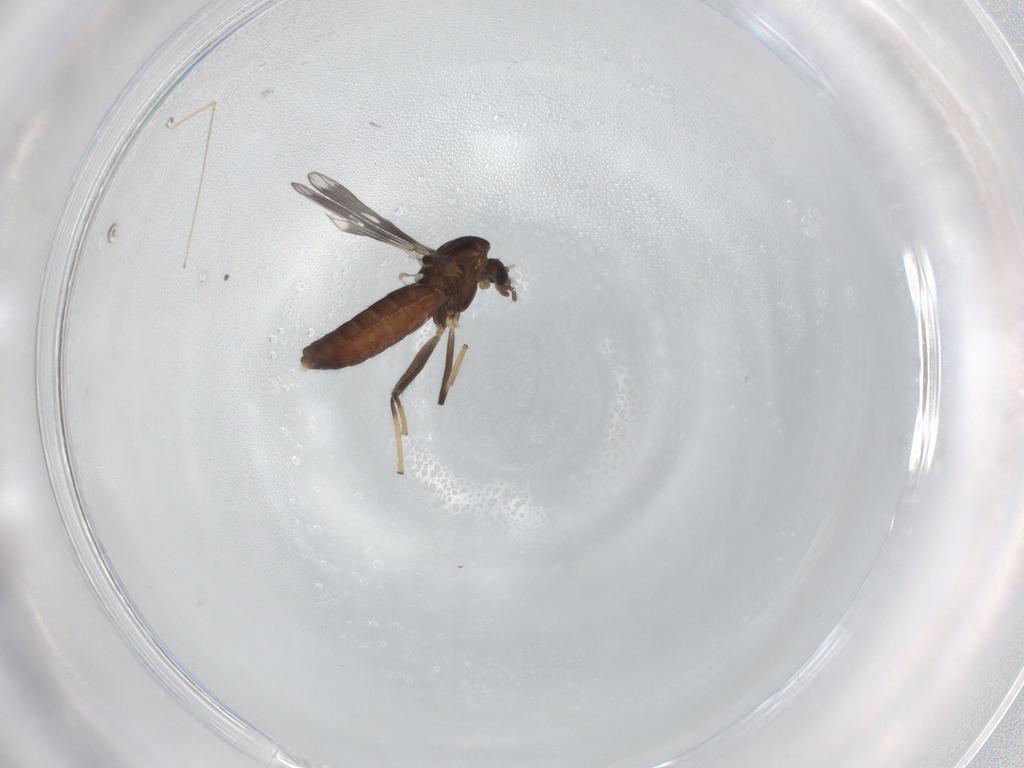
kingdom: Animalia
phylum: Arthropoda
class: Insecta
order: Diptera
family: Chironomidae
